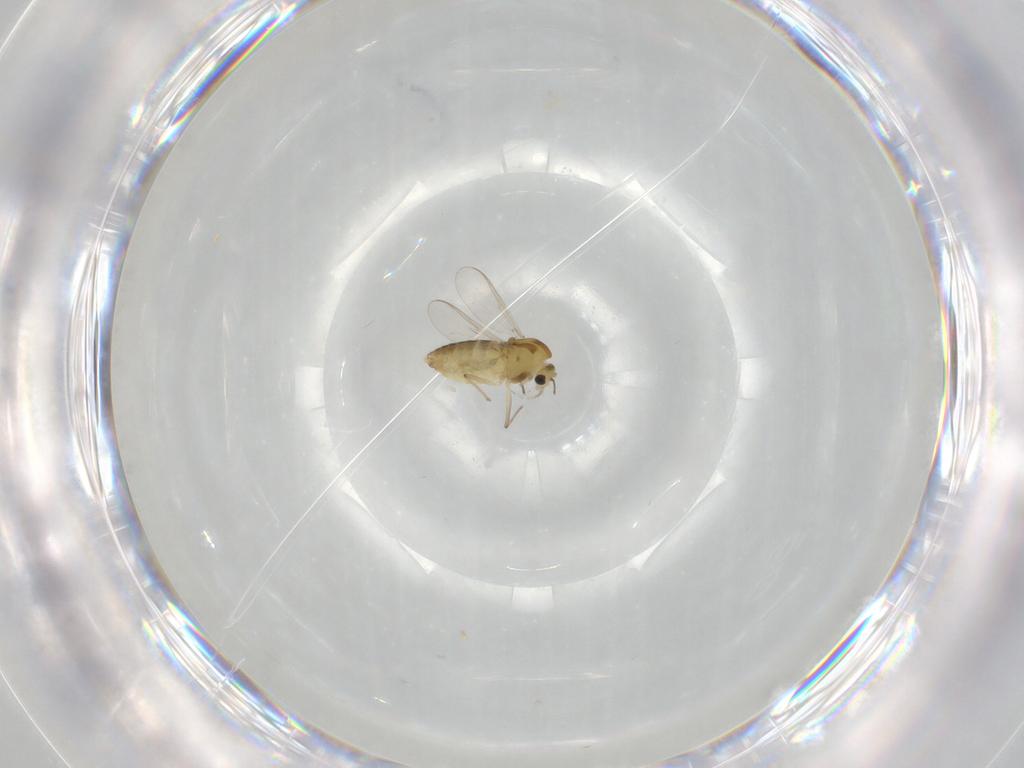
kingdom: Animalia
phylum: Arthropoda
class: Insecta
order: Diptera
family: Chironomidae
